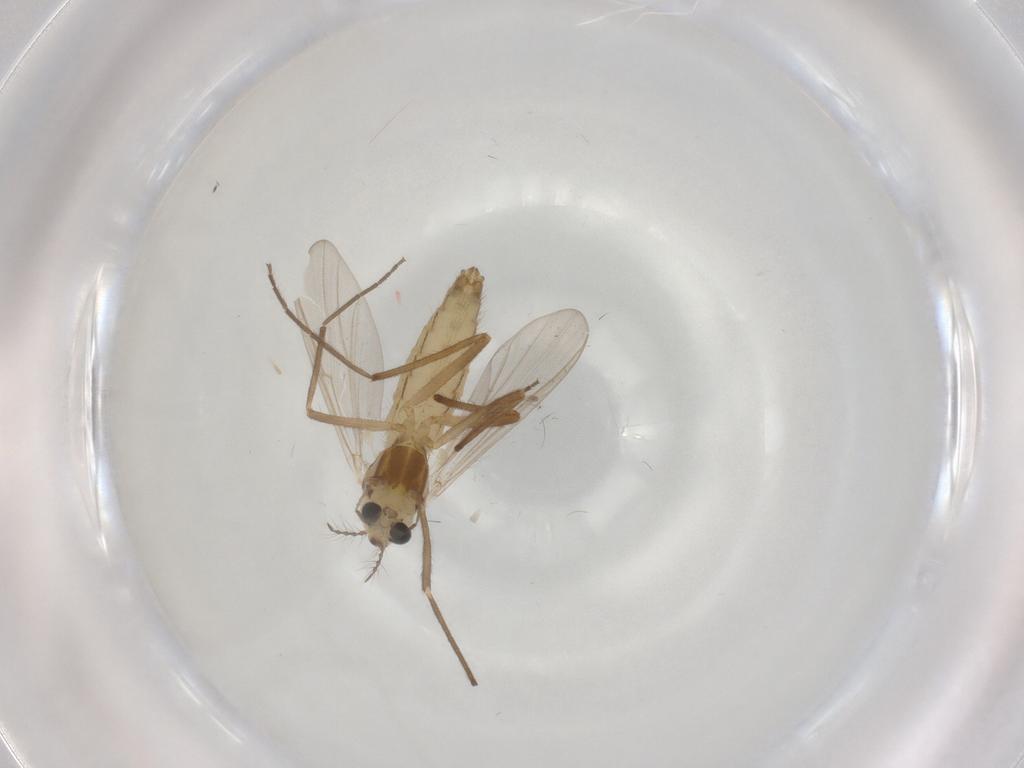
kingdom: Animalia
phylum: Arthropoda
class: Insecta
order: Diptera
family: Chironomidae
